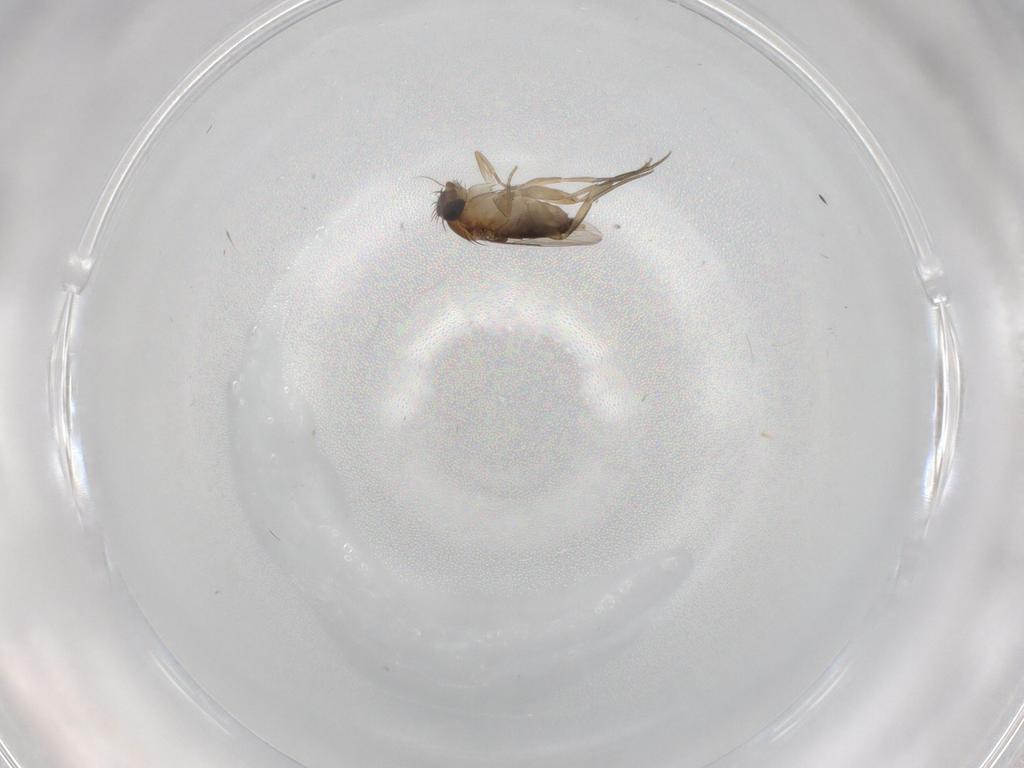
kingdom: Animalia
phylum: Arthropoda
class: Insecta
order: Diptera
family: Phoridae
